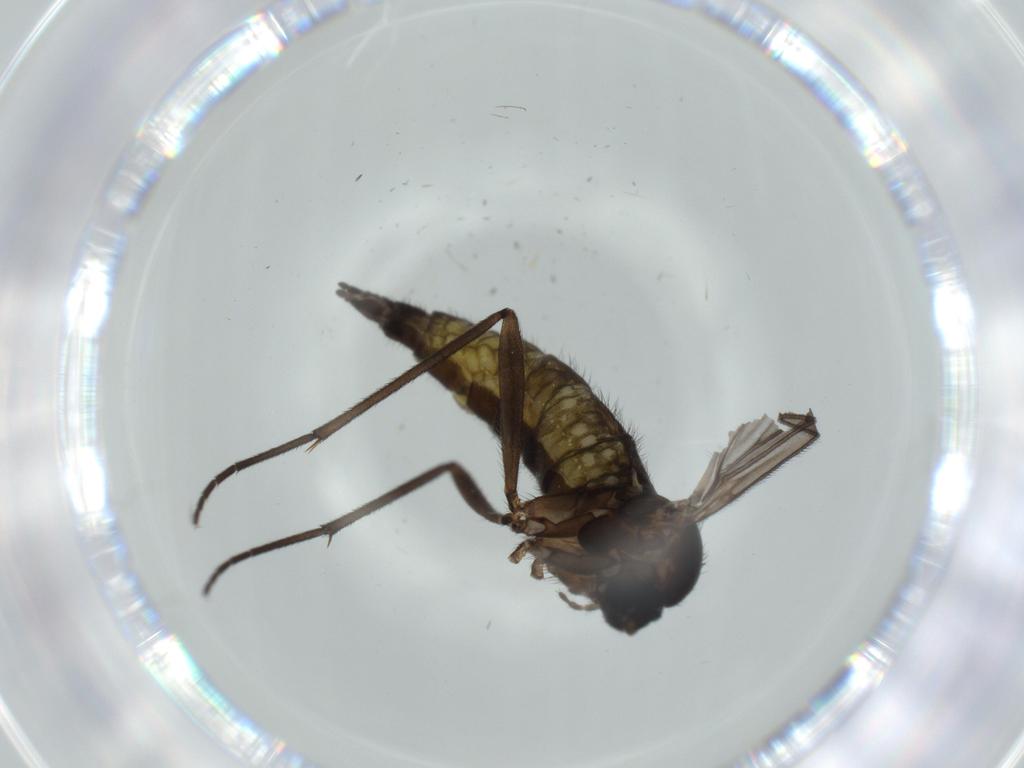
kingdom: Animalia
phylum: Arthropoda
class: Insecta
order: Diptera
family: Sciaridae
